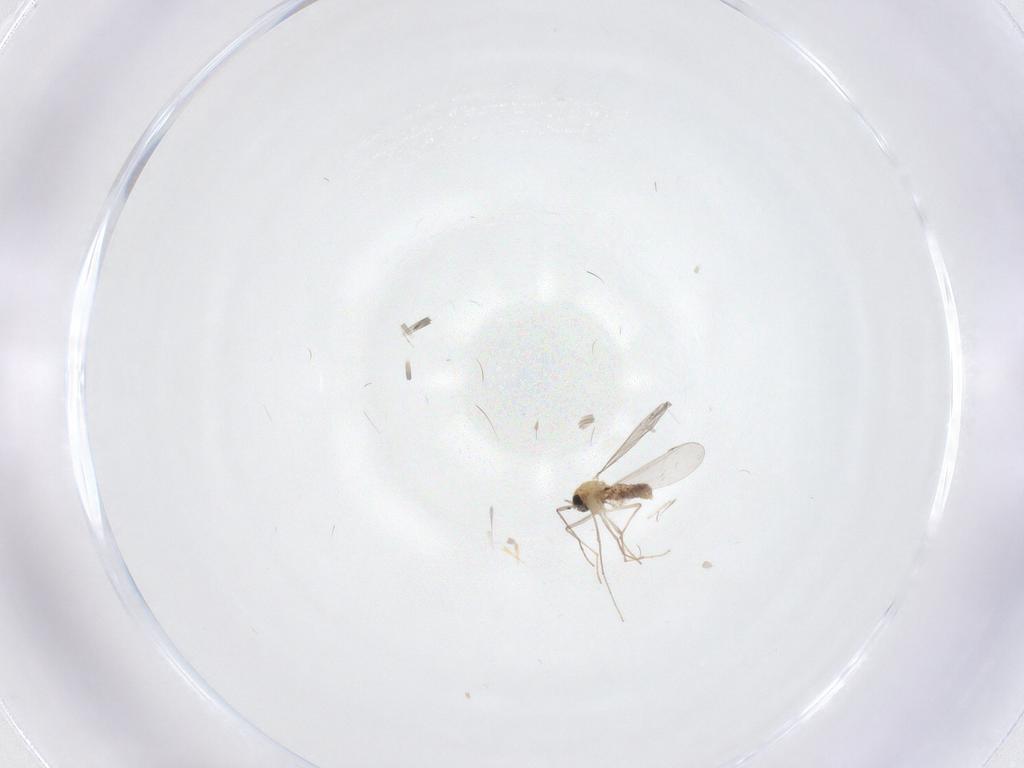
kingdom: Animalia
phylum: Arthropoda
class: Insecta
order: Diptera
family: Chironomidae
